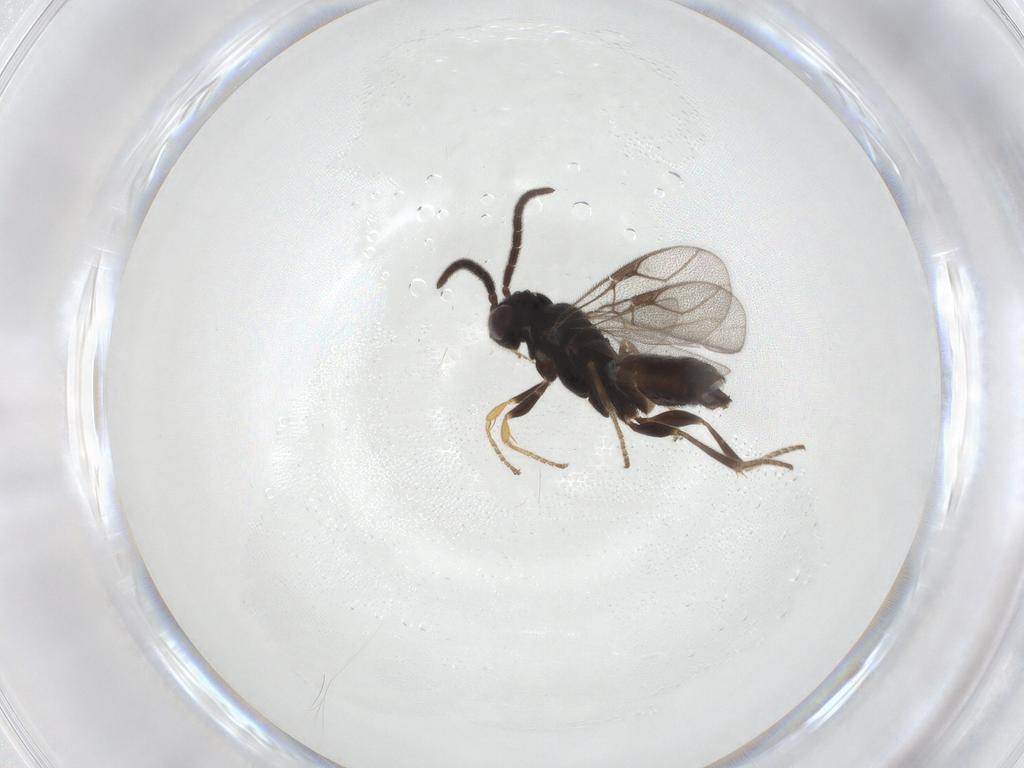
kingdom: Animalia
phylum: Arthropoda
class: Insecta
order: Hymenoptera
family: Dryinidae
